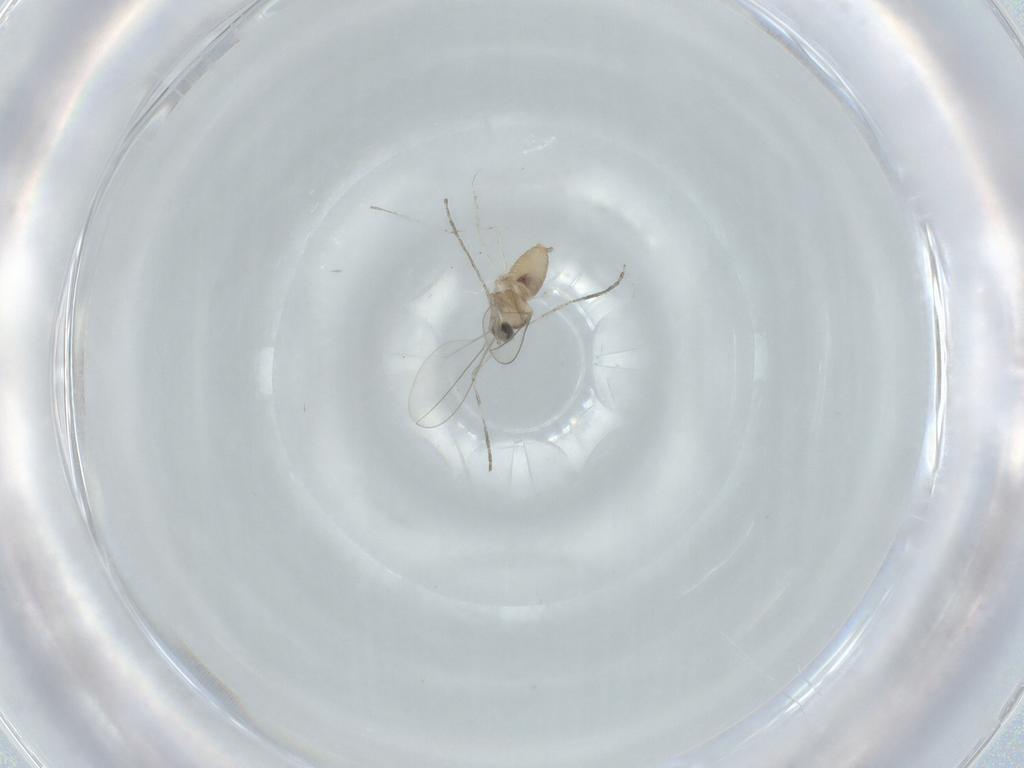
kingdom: Animalia
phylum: Arthropoda
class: Insecta
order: Diptera
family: Cecidomyiidae
